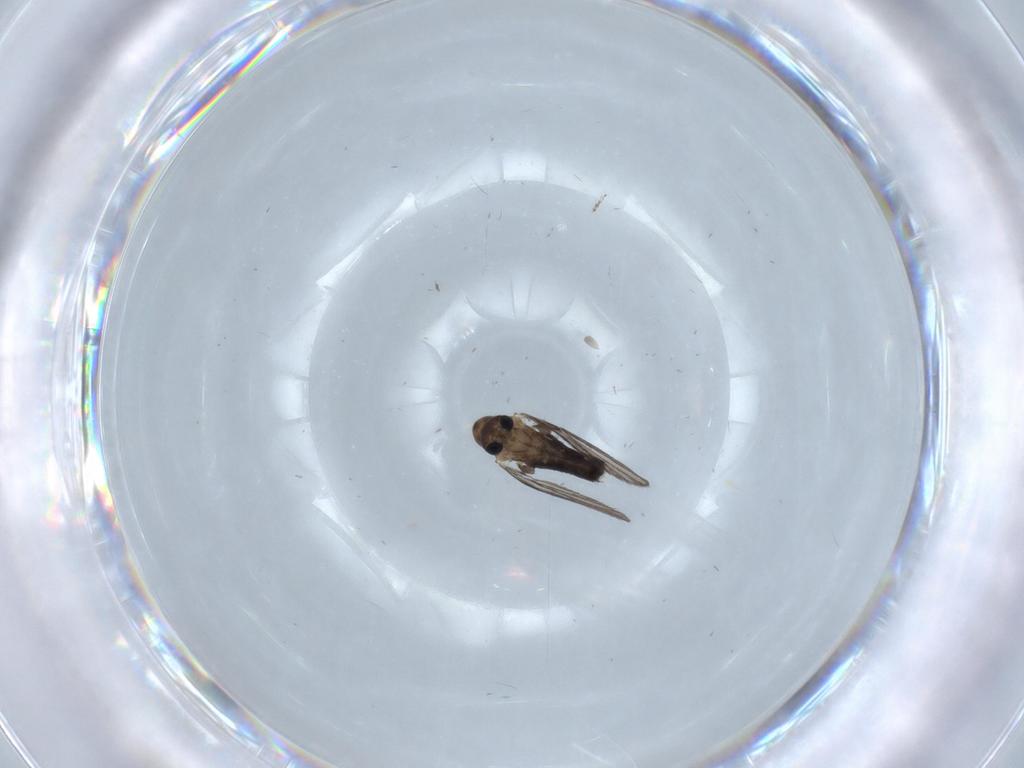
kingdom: Animalia
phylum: Arthropoda
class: Insecta
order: Diptera
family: Psychodidae
